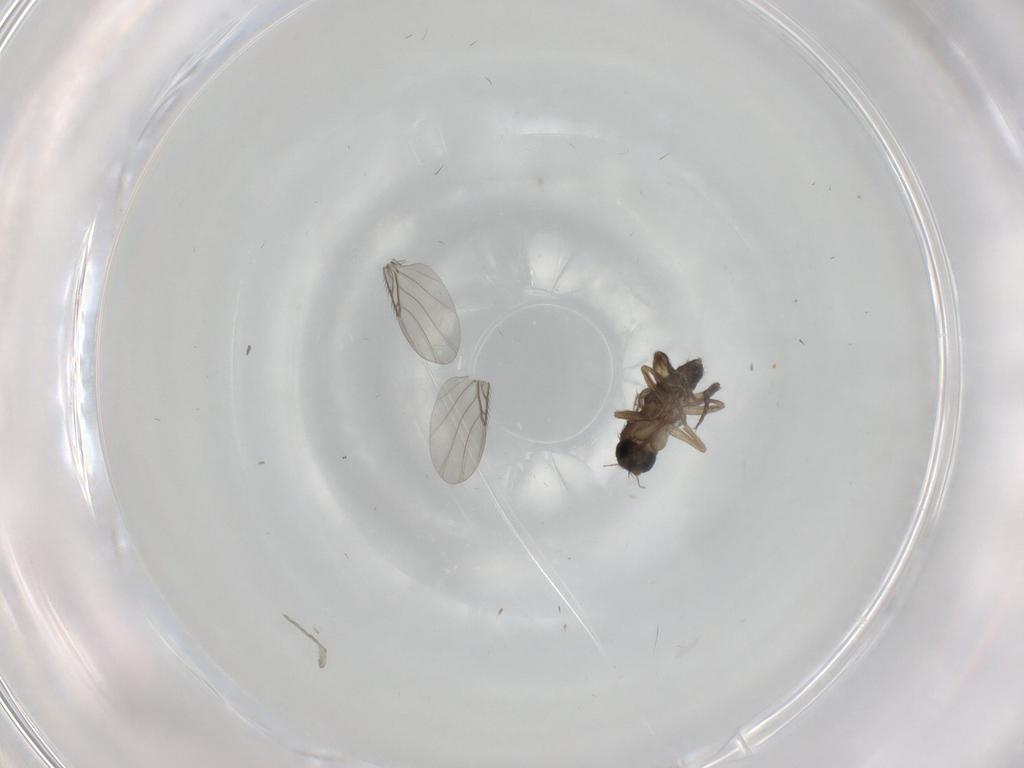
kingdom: Animalia
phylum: Arthropoda
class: Insecta
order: Diptera
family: Phoridae
